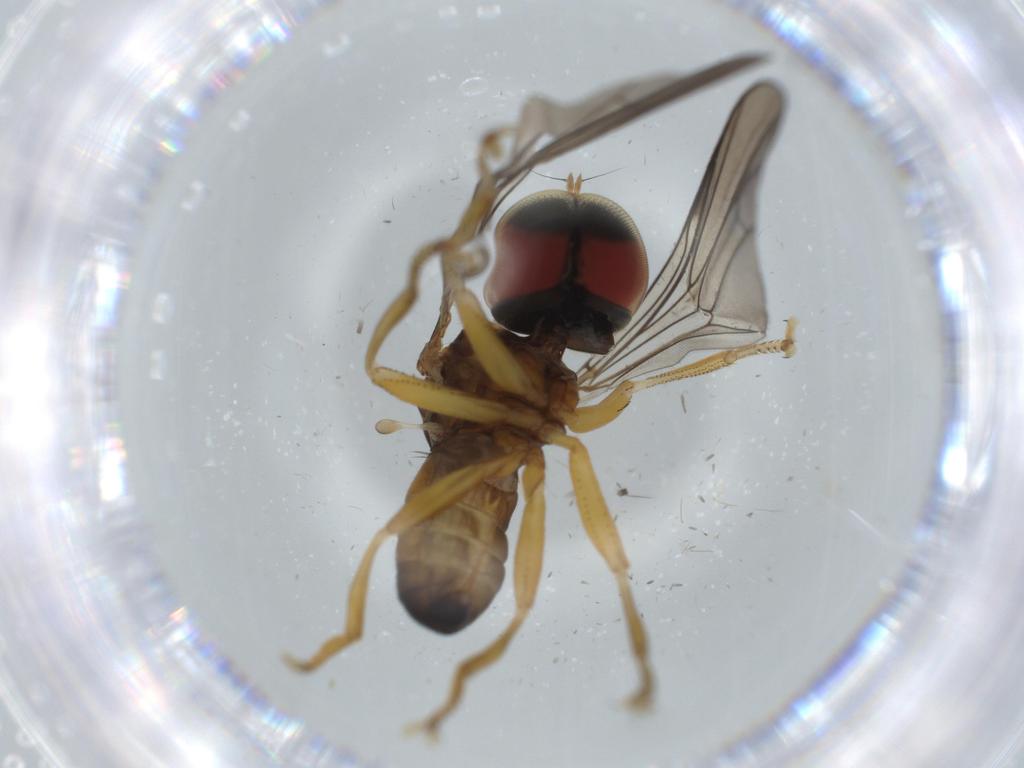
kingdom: Animalia
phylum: Arthropoda
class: Insecta
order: Diptera
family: Pipunculidae
